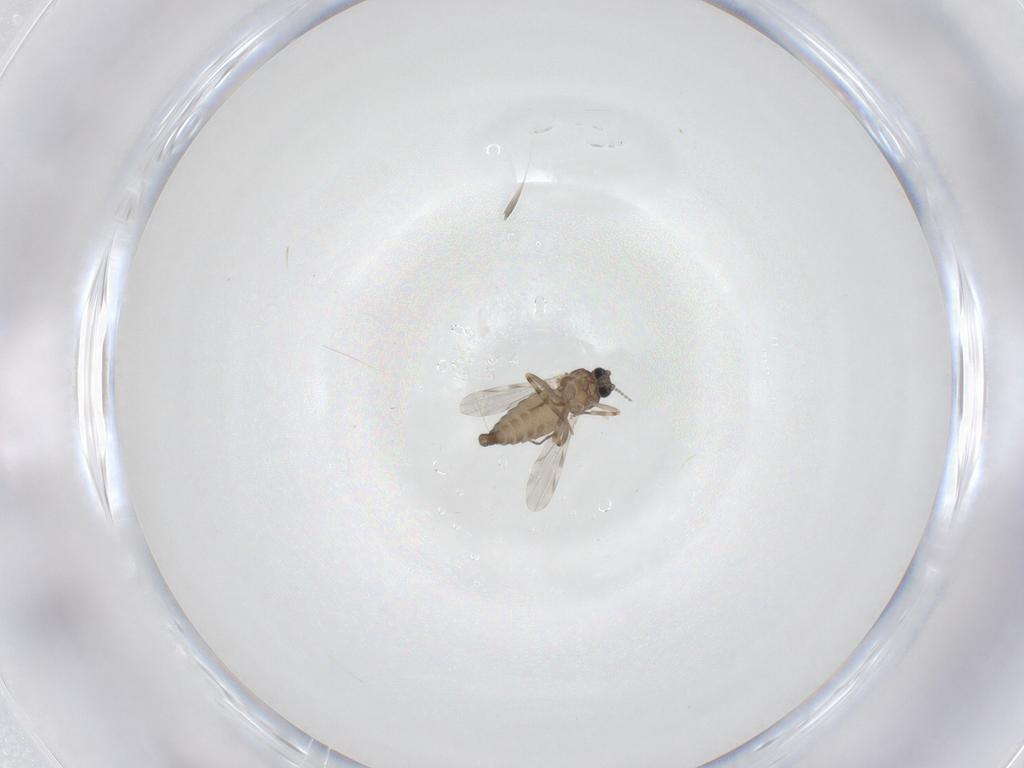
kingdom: Animalia
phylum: Arthropoda
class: Insecta
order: Diptera
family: Ceratopogonidae
